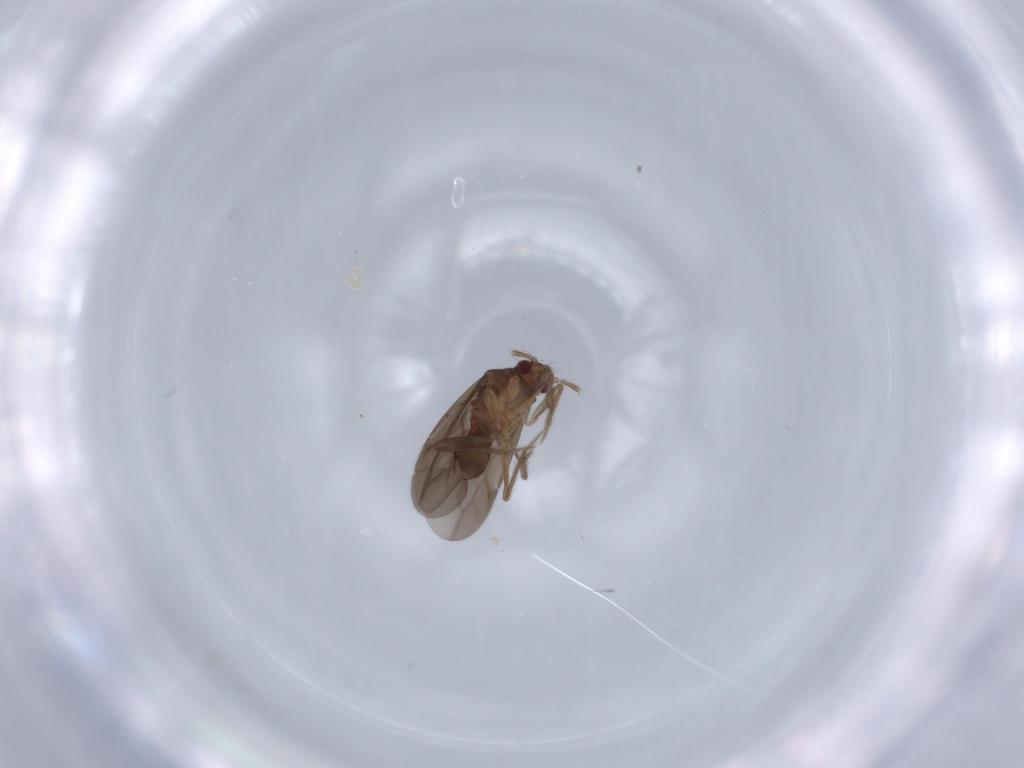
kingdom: Animalia
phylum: Arthropoda
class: Insecta
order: Hemiptera
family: Ceratocombidae
